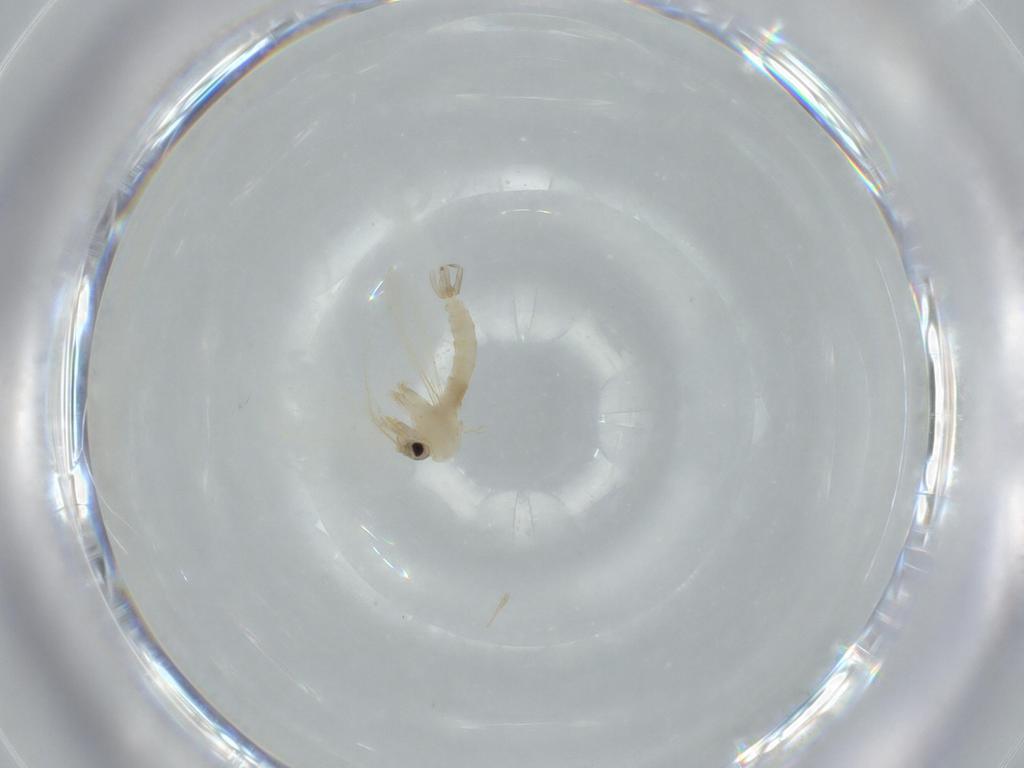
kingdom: Animalia
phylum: Arthropoda
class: Insecta
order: Diptera
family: Psychodidae
